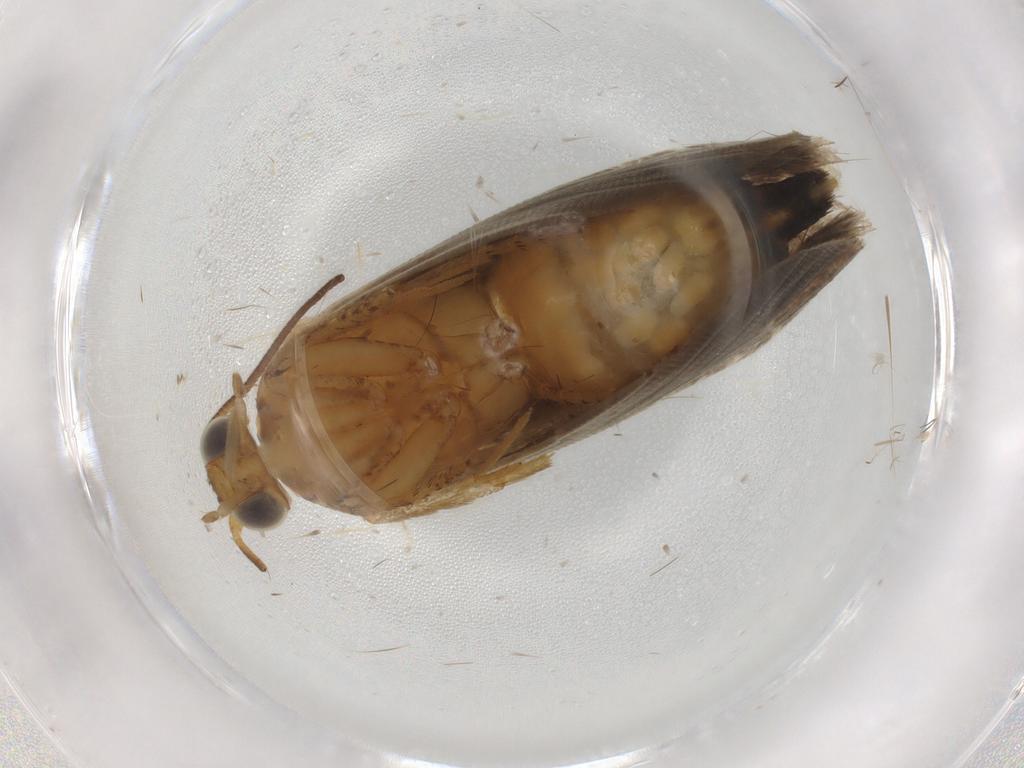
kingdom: Animalia
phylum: Arthropoda
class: Insecta
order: Lepidoptera
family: Tortricidae
